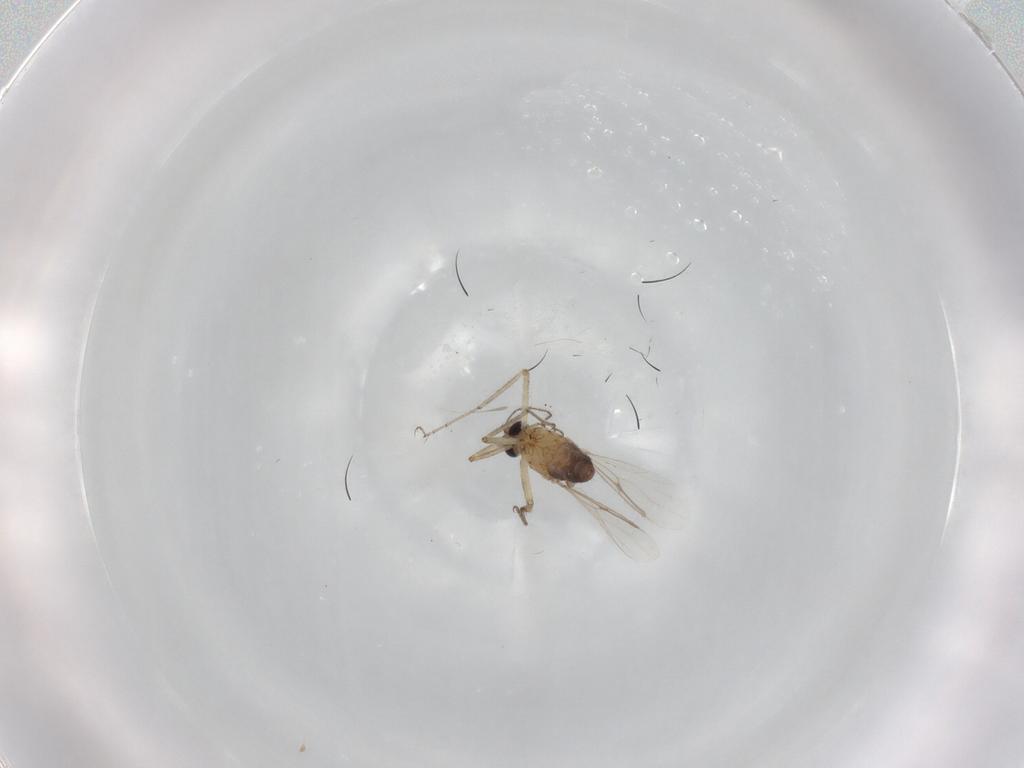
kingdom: Animalia
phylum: Arthropoda
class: Insecta
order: Diptera
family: Ceratopogonidae
